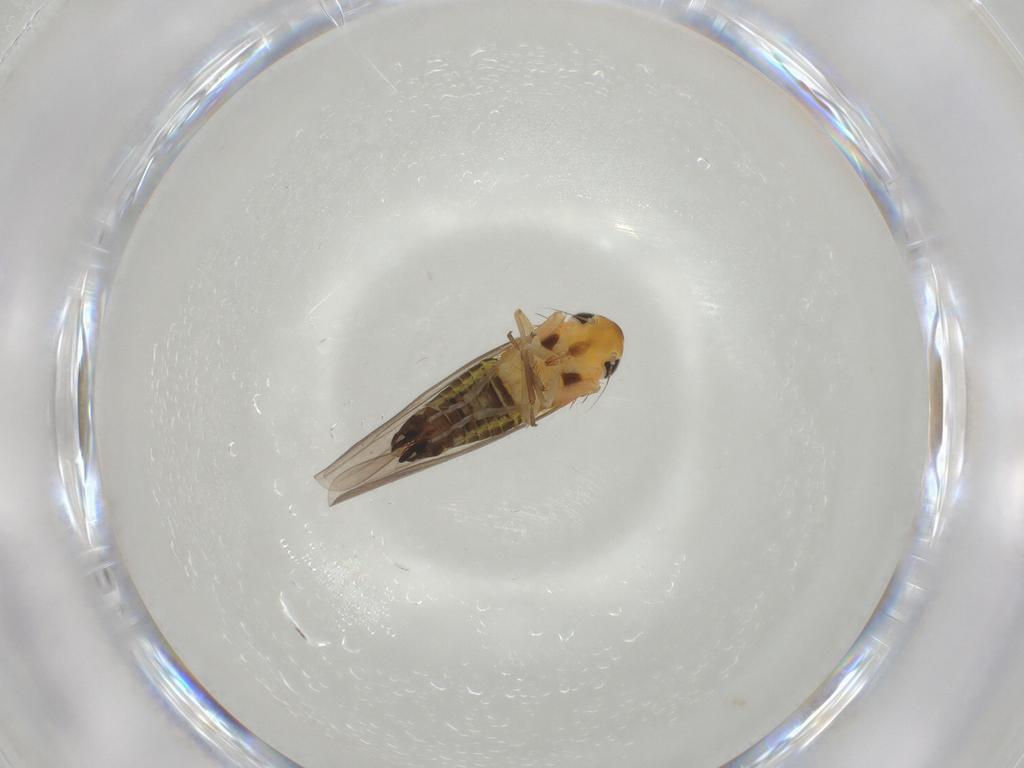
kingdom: Animalia
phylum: Arthropoda
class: Insecta
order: Hemiptera
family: Cicadellidae
